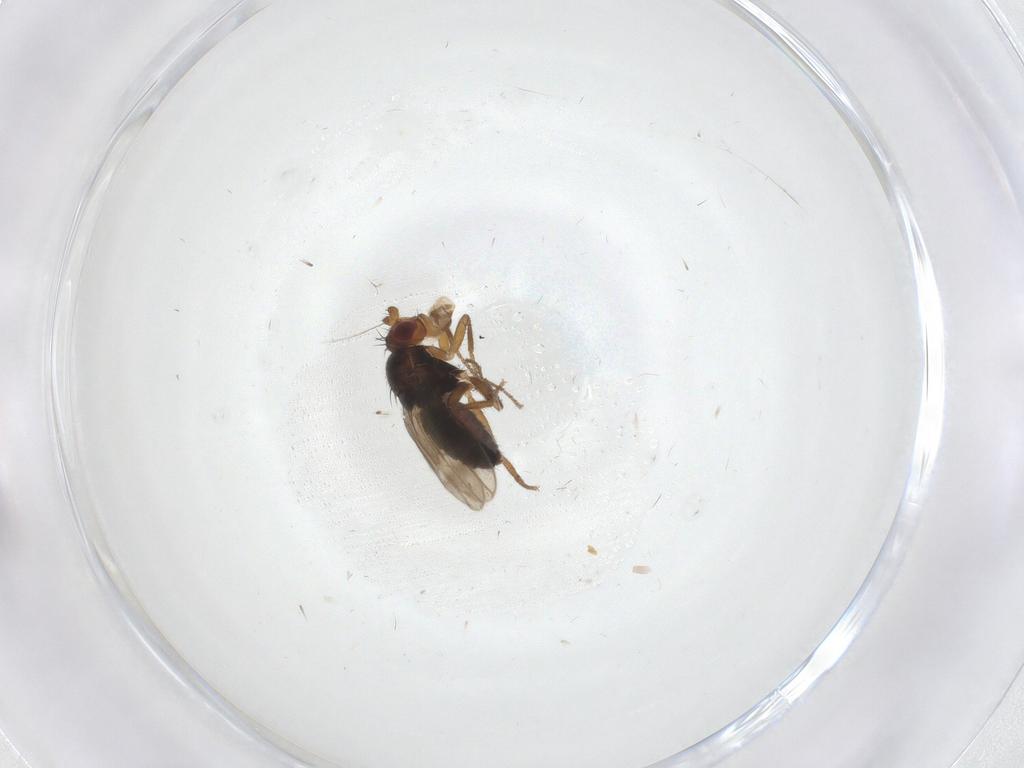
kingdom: Animalia
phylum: Arthropoda
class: Insecta
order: Diptera
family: Sphaeroceridae
